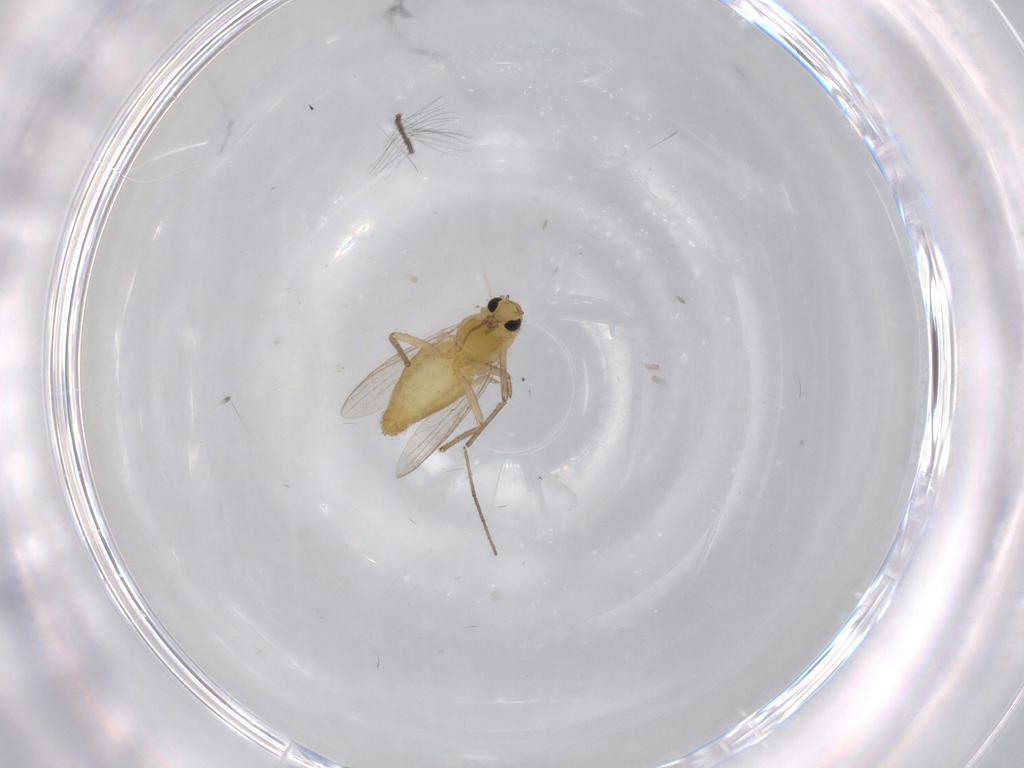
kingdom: Animalia
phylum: Arthropoda
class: Insecta
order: Diptera
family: Chironomidae
